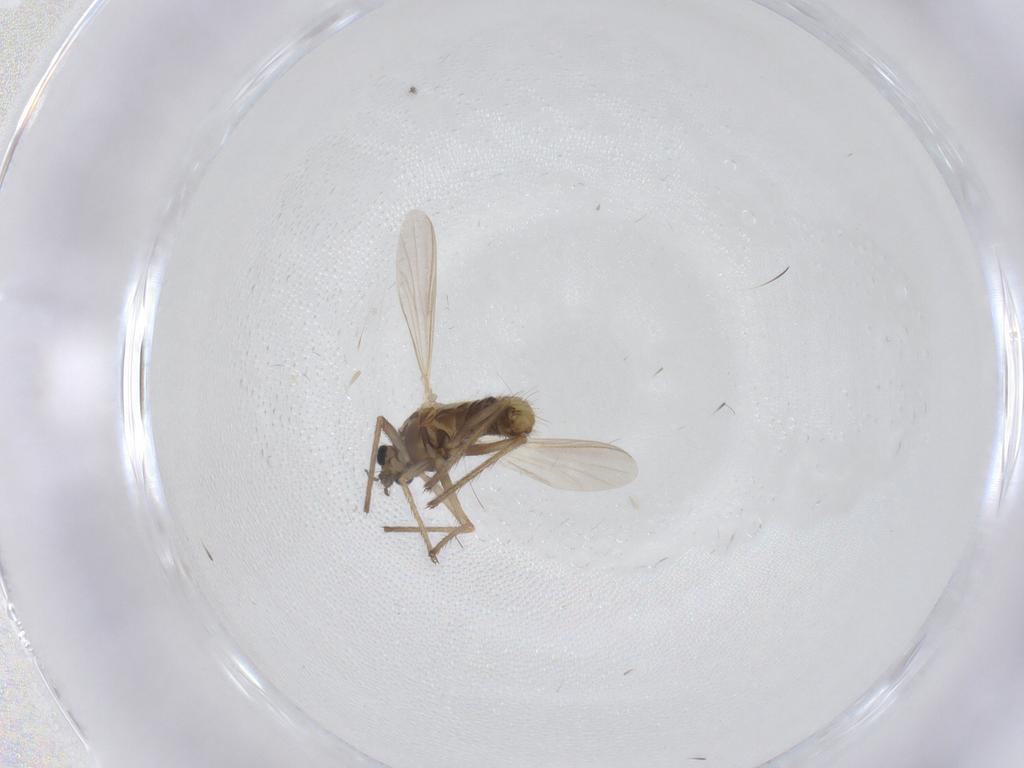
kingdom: Animalia
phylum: Arthropoda
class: Insecta
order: Diptera
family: Chironomidae
